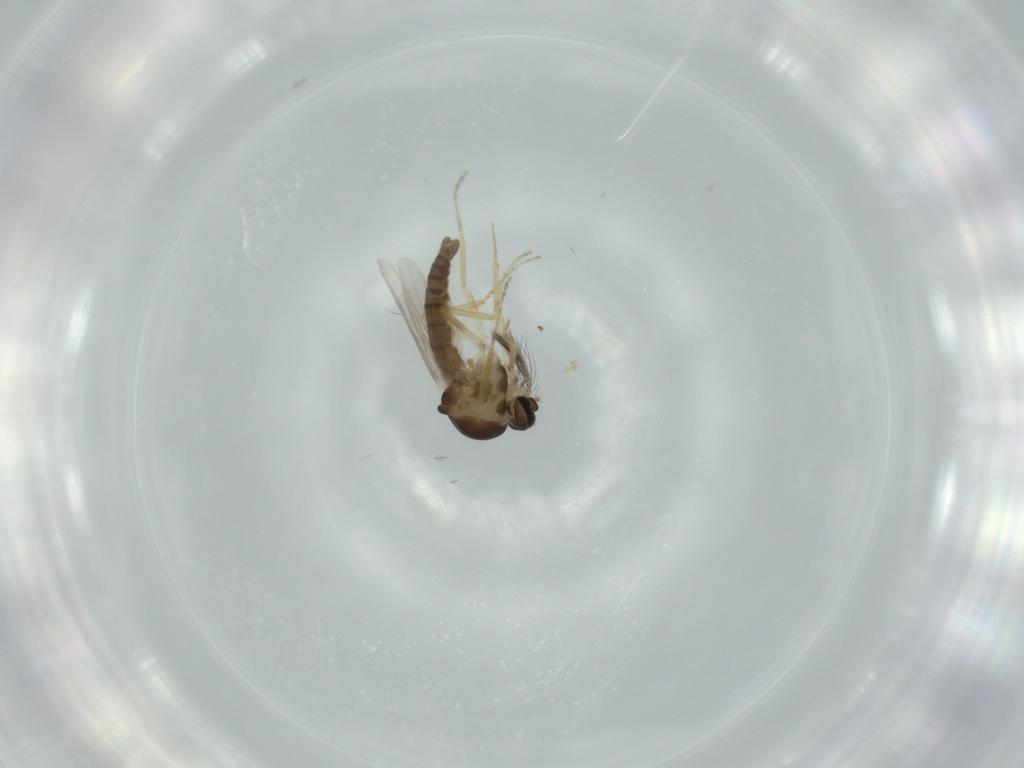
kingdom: Animalia
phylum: Arthropoda
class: Insecta
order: Diptera
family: Ceratopogonidae
